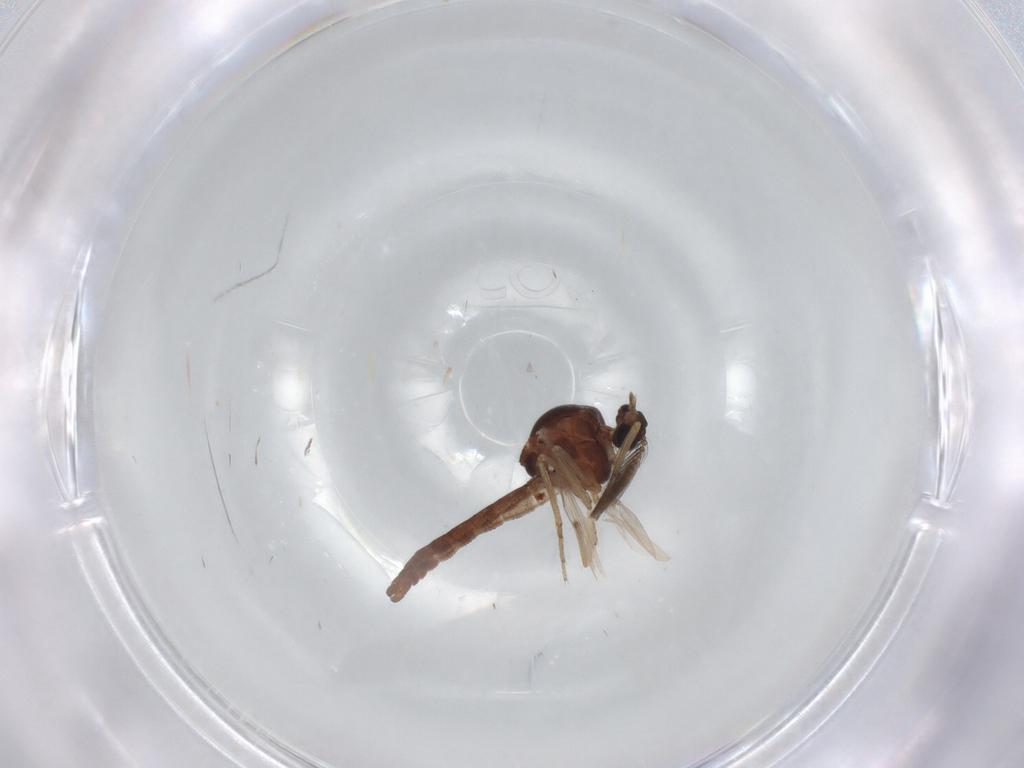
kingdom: Animalia
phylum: Arthropoda
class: Insecta
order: Diptera
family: Ceratopogonidae
